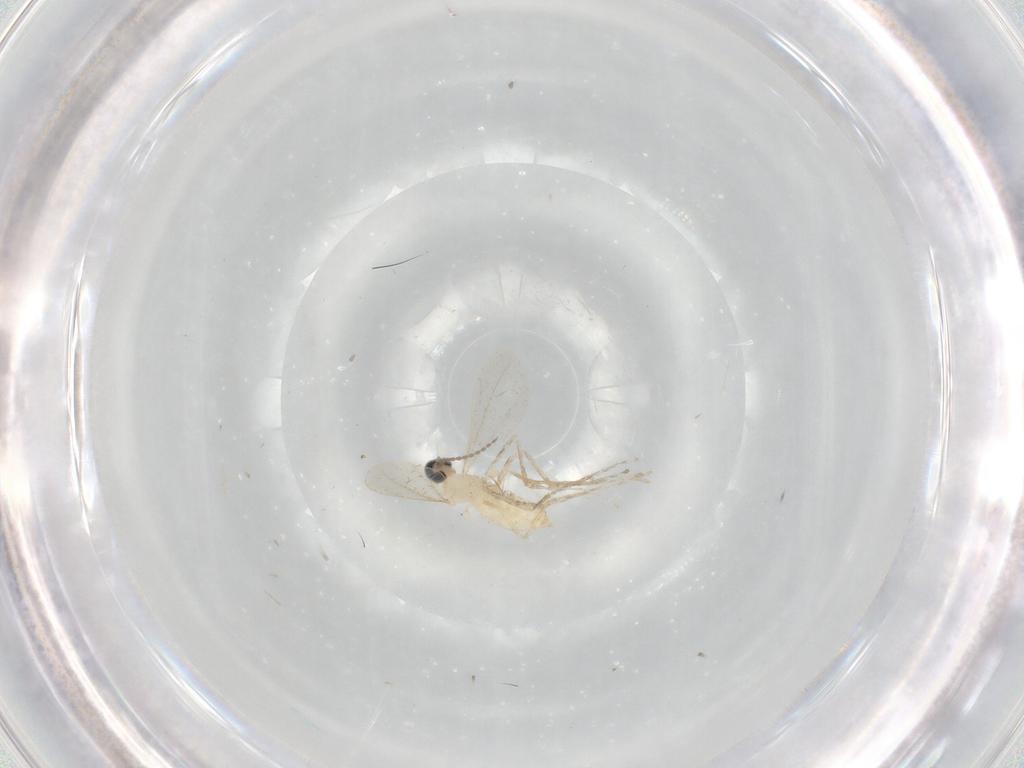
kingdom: Animalia
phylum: Arthropoda
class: Insecta
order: Diptera
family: Cecidomyiidae
